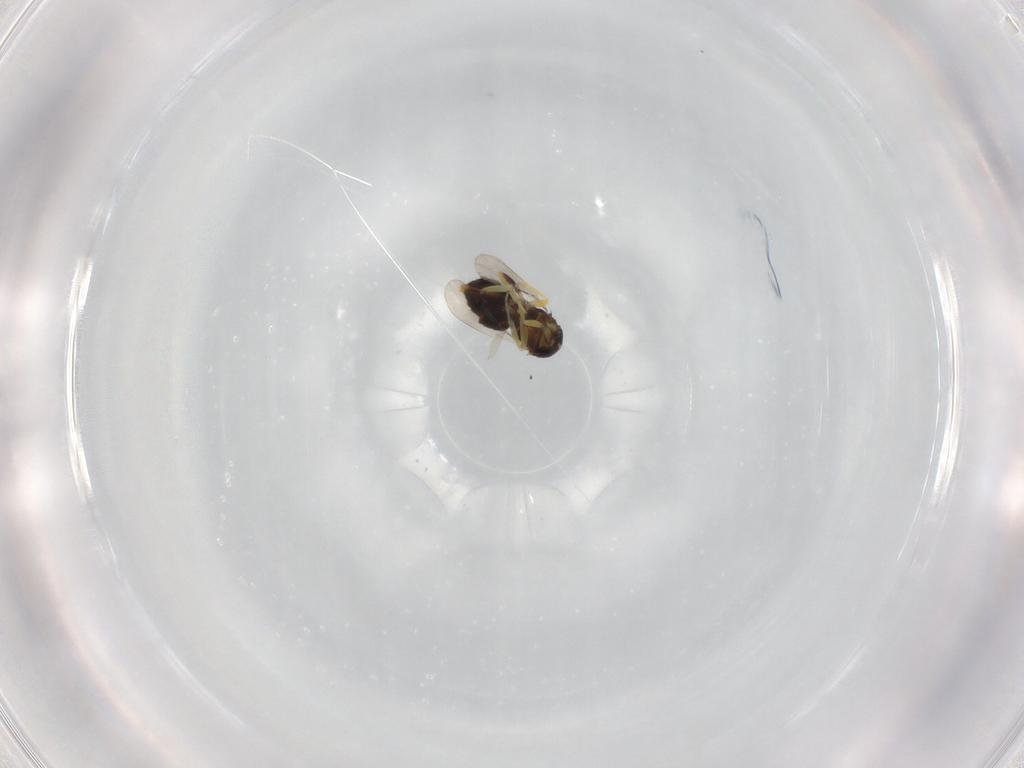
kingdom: Animalia
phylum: Arthropoda
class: Insecta
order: Hymenoptera
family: Aphelinidae
